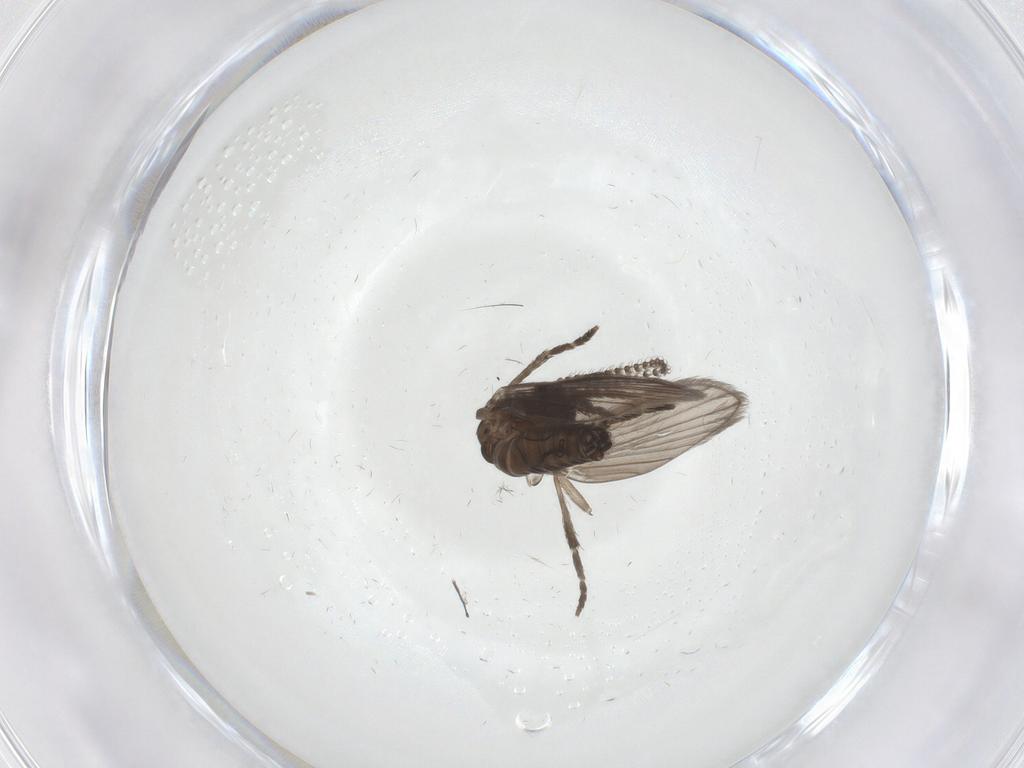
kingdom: Animalia
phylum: Arthropoda
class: Insecta
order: Diptera
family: Psychodidae
